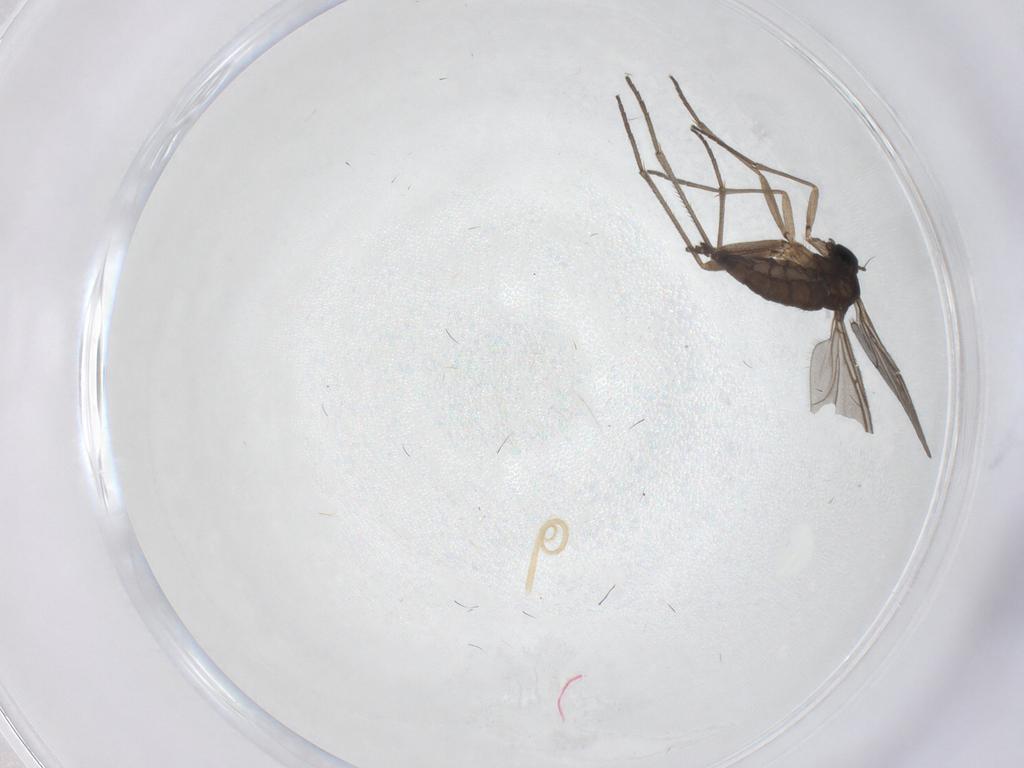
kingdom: Animalia
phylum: Arthropoda
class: Insecta
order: Diptera
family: Sciaridae
